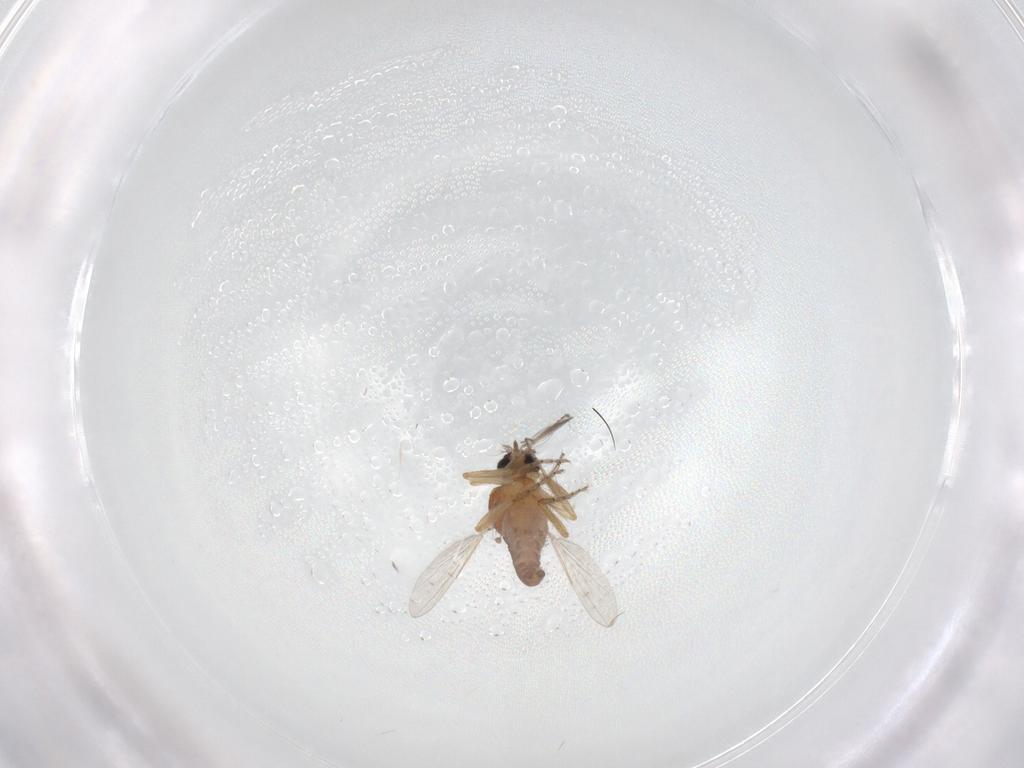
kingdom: Animalia
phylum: Arthropoda
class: Insecta
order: Diptera
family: Ceratopogonidae
